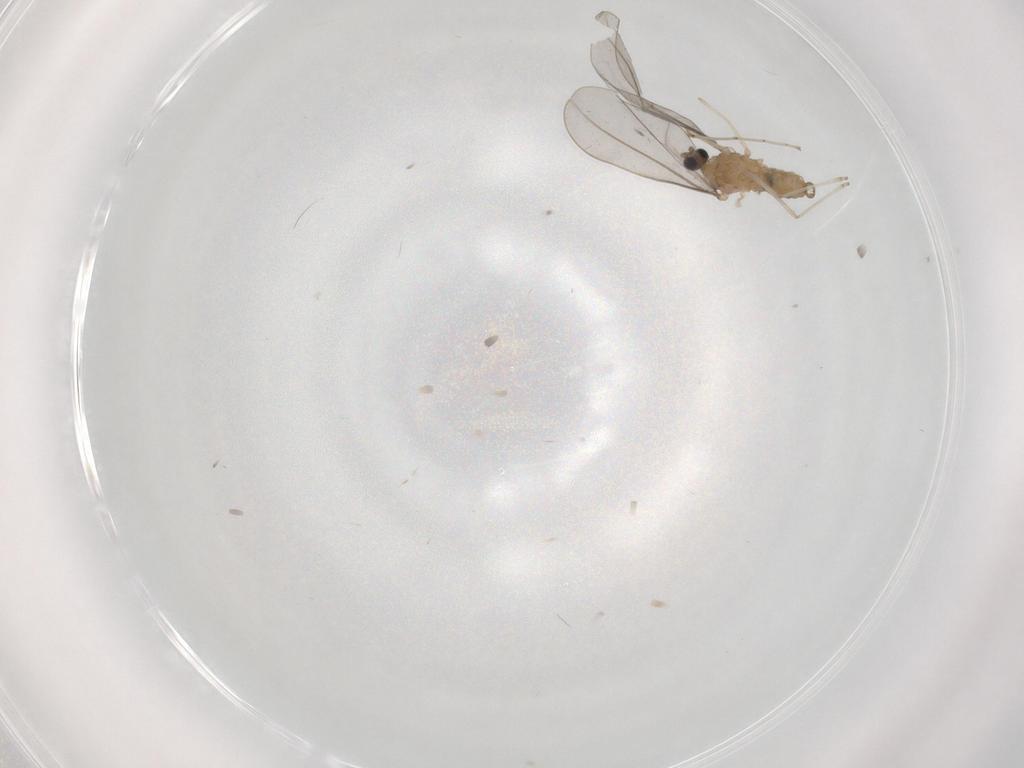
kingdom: Animalia
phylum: Arthropoda
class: Insecta
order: Diptera
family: Cecidomyiidae
